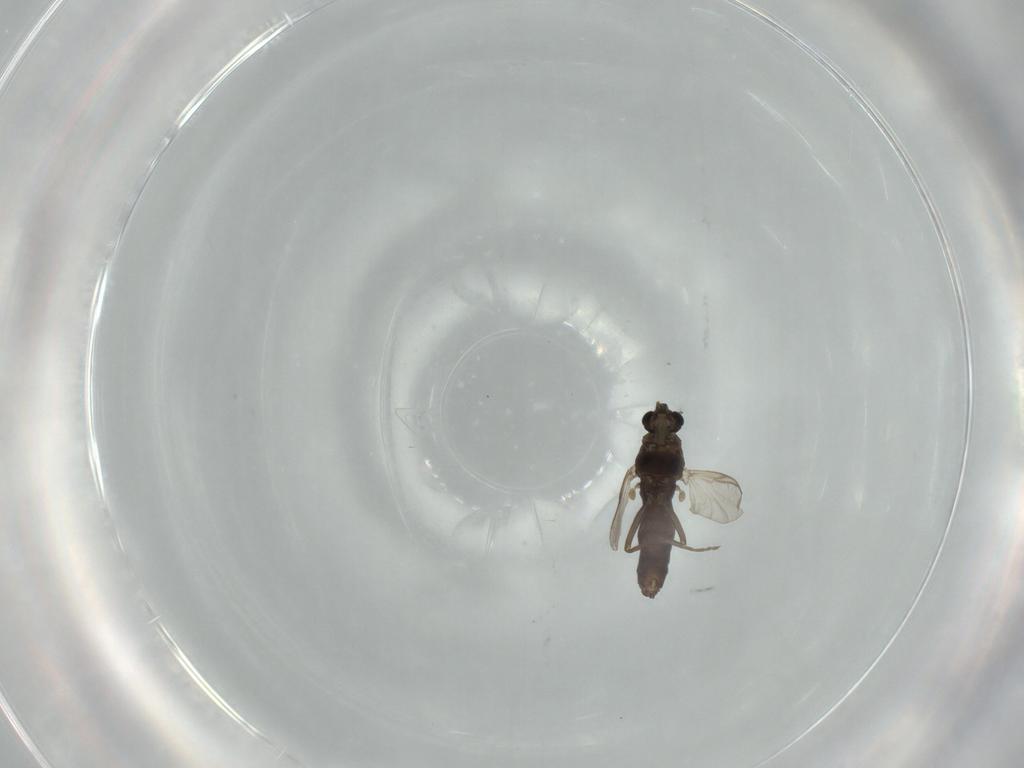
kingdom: Animalia
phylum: Arthropoda
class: Insecta
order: Diptera
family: Chironomidae
